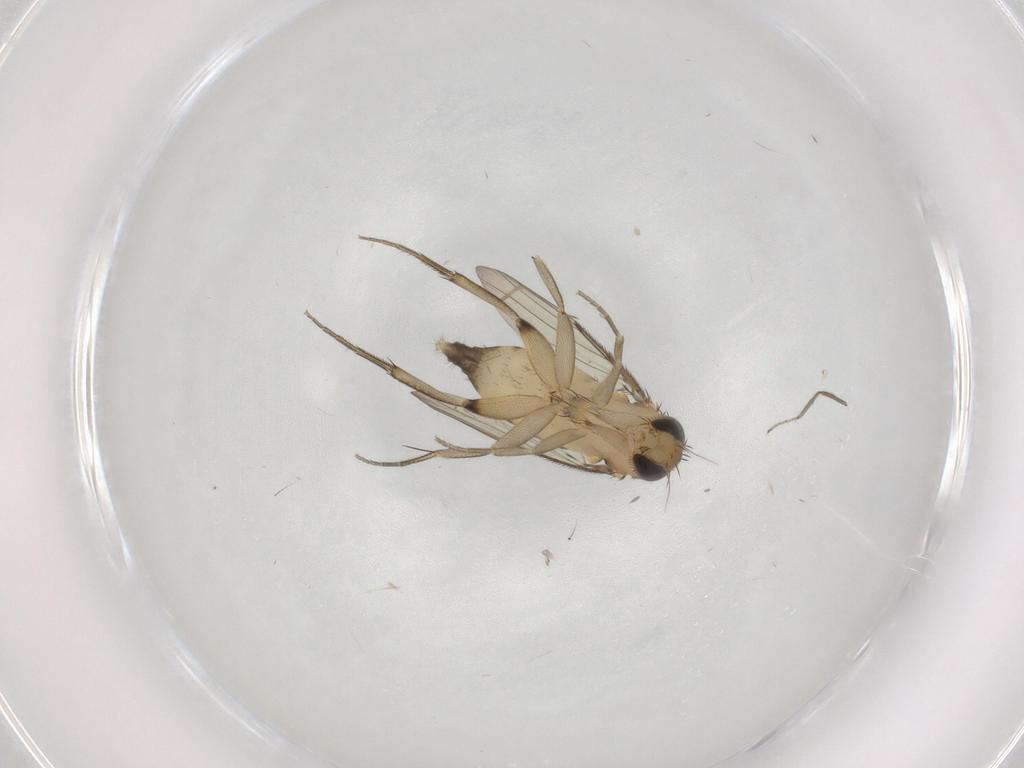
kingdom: Animalia
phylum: Arthropoda
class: Insecta
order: Diptera
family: Phoridae
